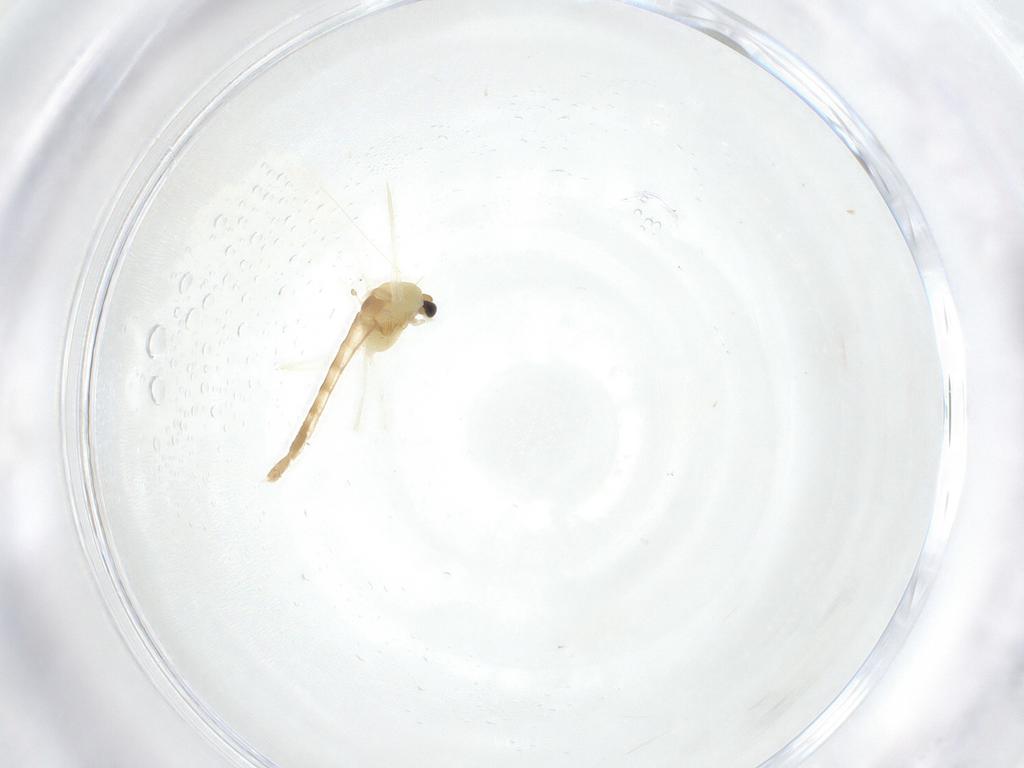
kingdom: Animalia
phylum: Arthropoda
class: Insecta
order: Diptera
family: Chironomidae
